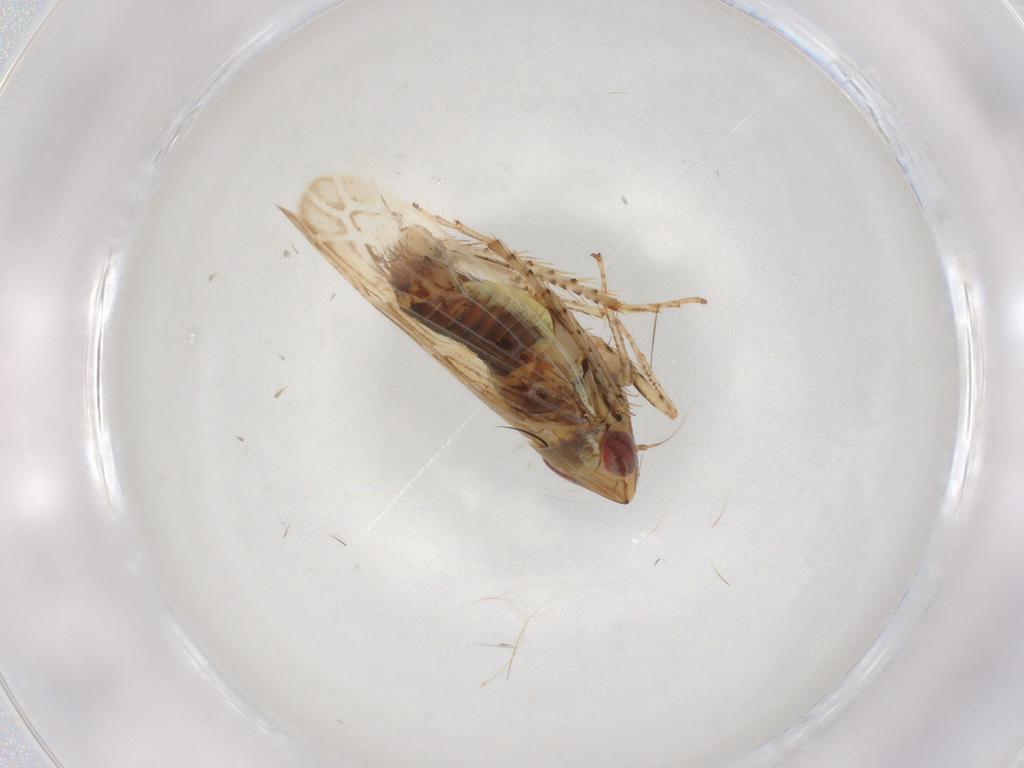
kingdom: Animalia
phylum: Arthropoda
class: Insecta
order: Hemiptera
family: Cicadellidae
